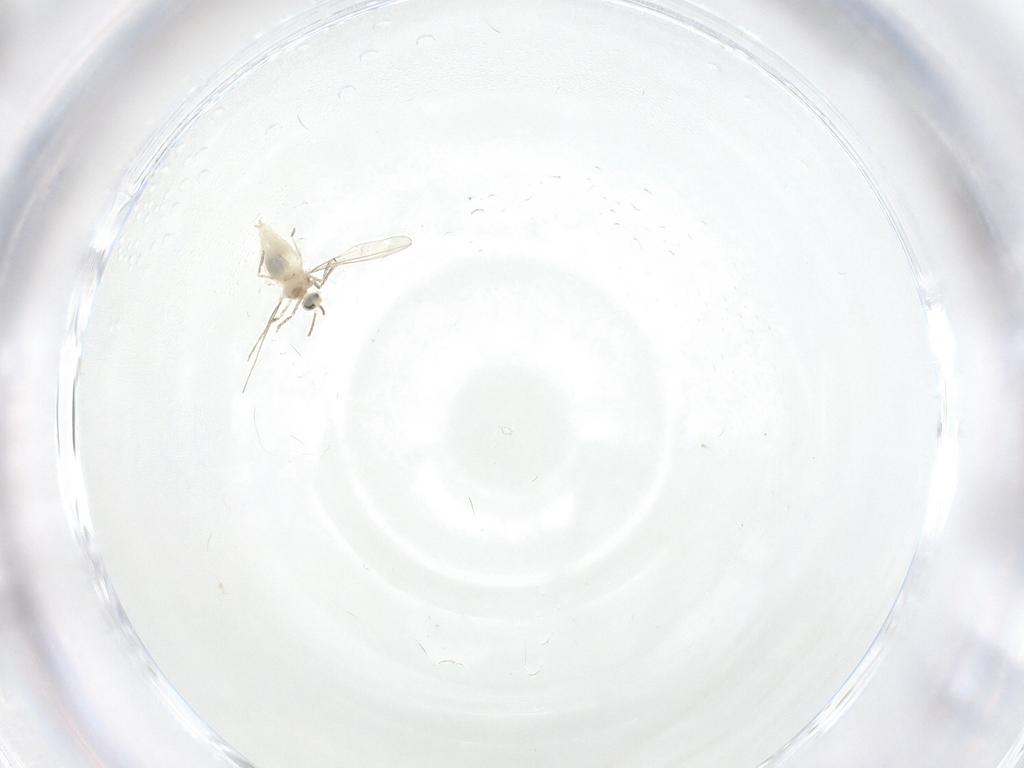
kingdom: Animalia
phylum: Arthropoda
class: Insecta
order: Diptera
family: Cecidomyiidae
